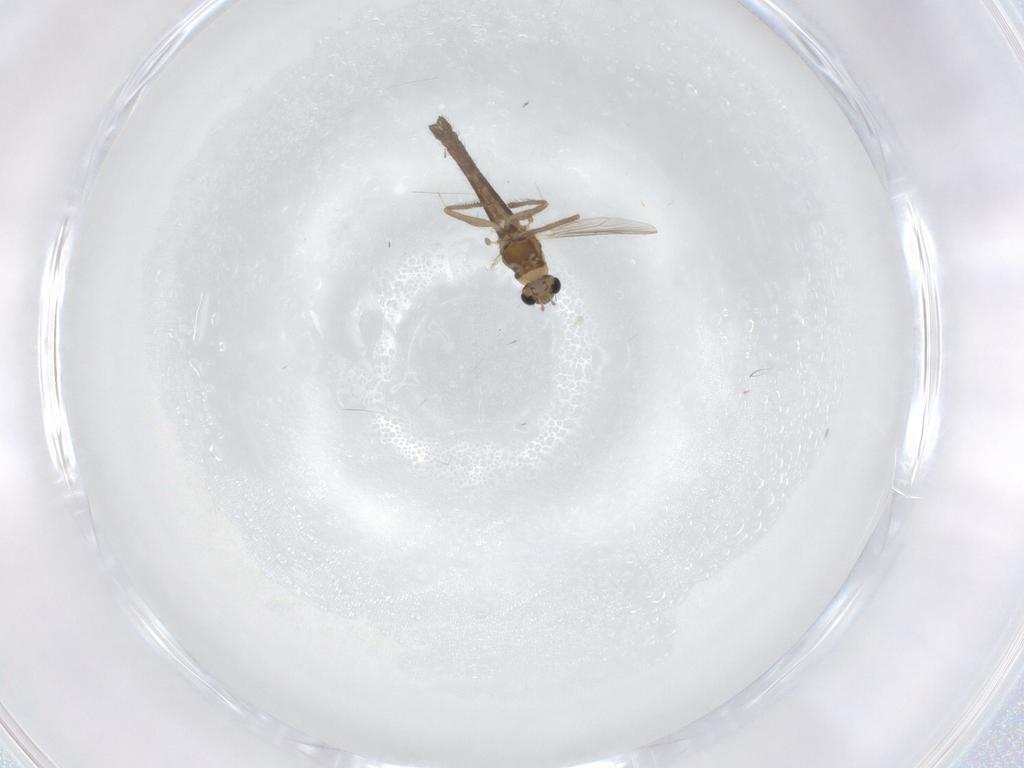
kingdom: Animalia
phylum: Arthropoda
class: Insecta
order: Diptera
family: Chironomidae
